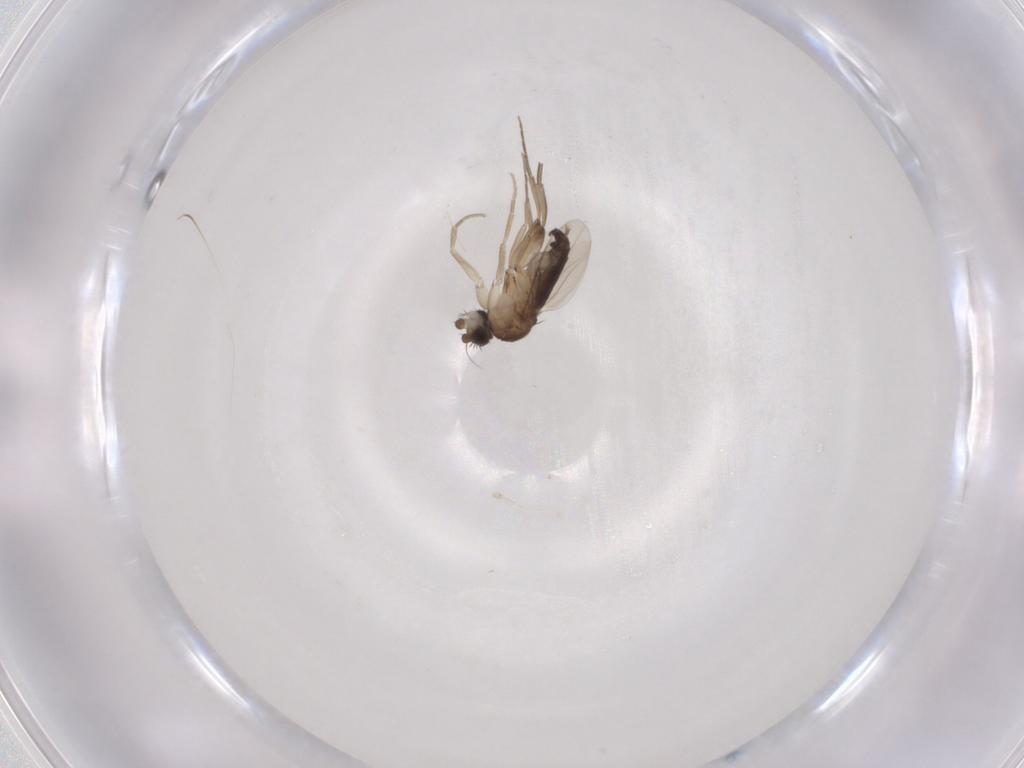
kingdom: Animalia
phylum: Arthropoda
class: Insecta
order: Diptera
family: Phoridae
